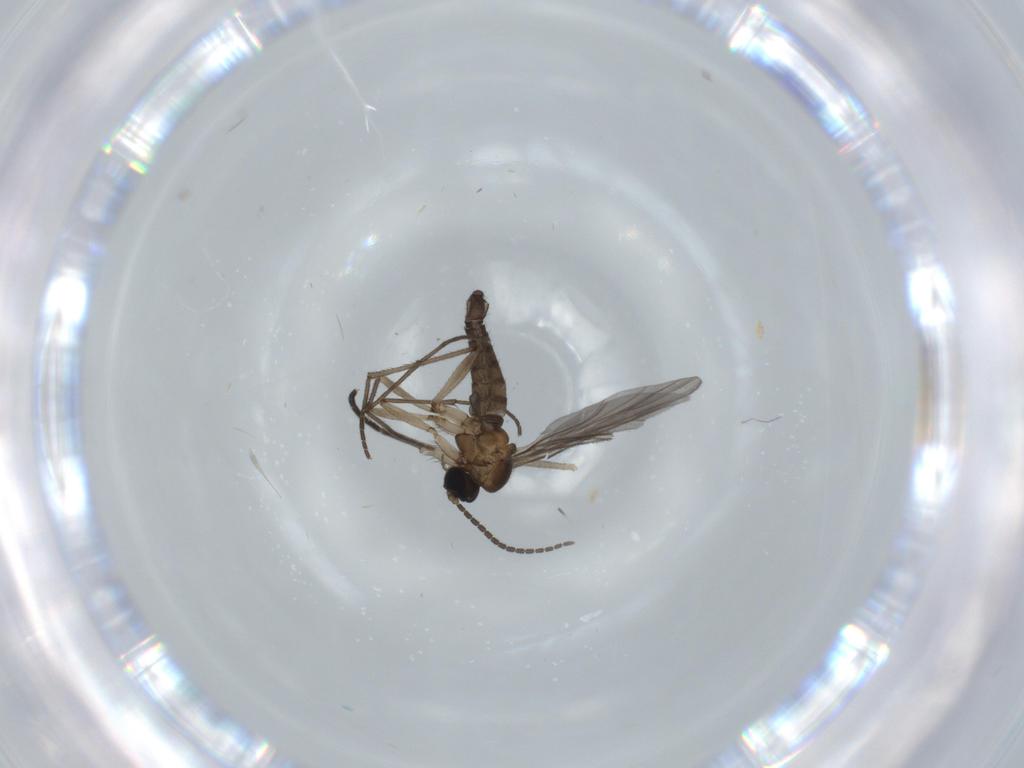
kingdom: Animalia
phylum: Arthropoda
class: Insecta
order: Diptera
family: Sciaridae
